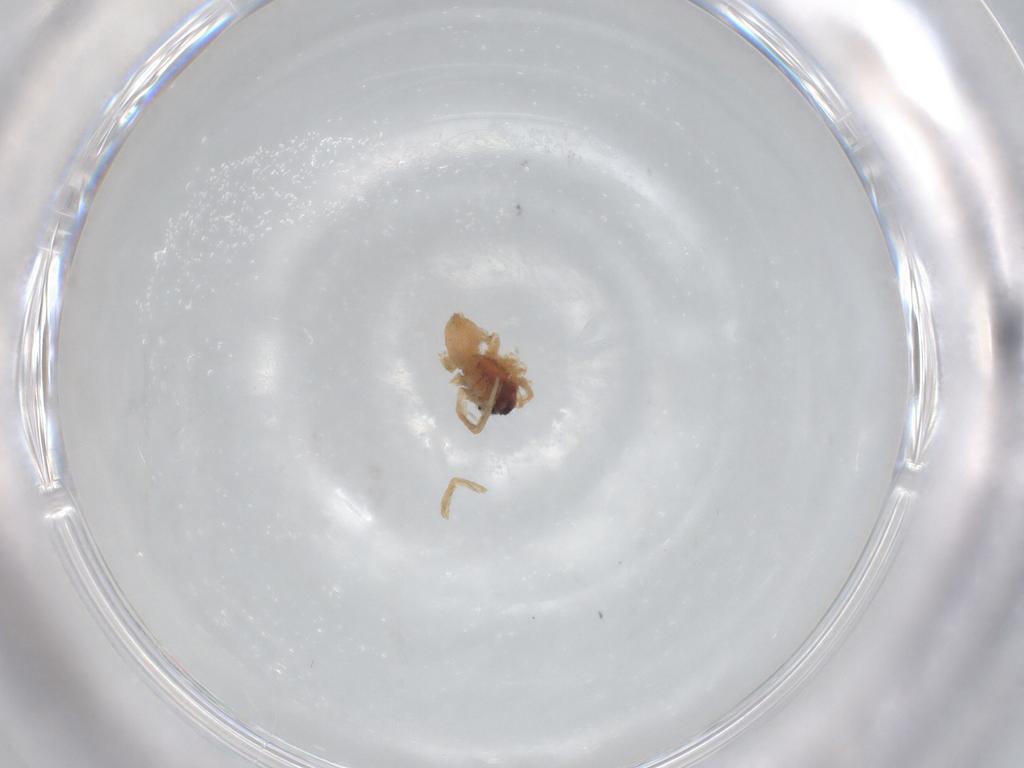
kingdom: Animalia
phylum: Arthropoda
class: Arachnida
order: Araneae
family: Lycosidae
